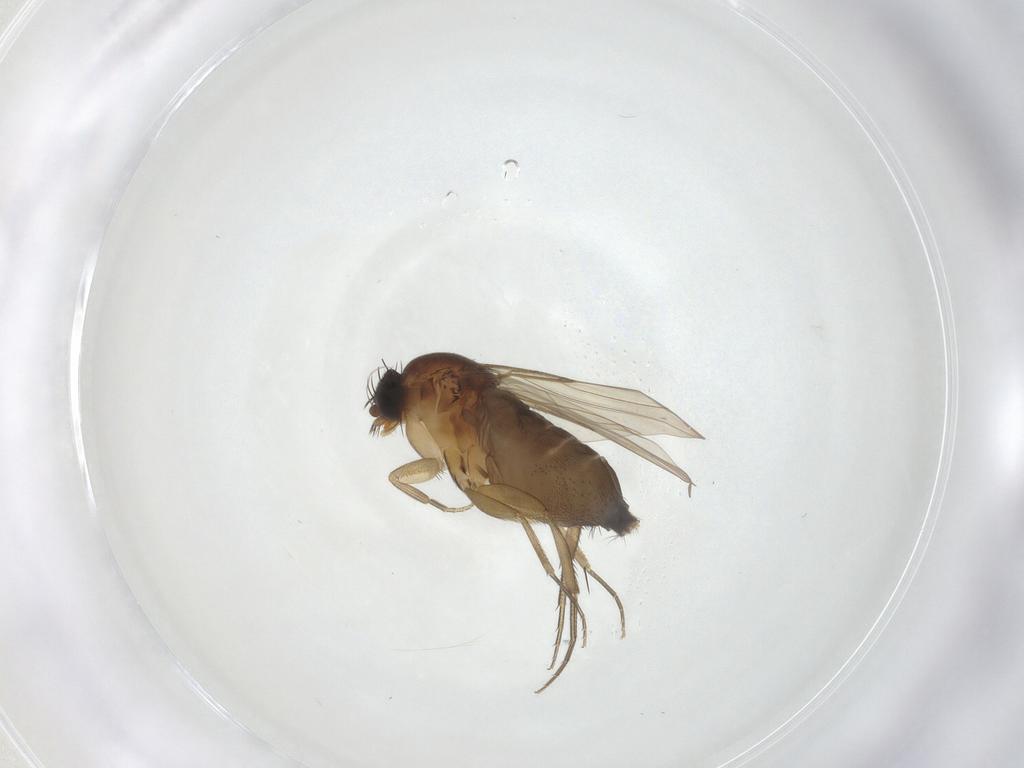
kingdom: Animalia
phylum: Arthropoda
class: Insecta
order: Diptera
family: Phoridae
